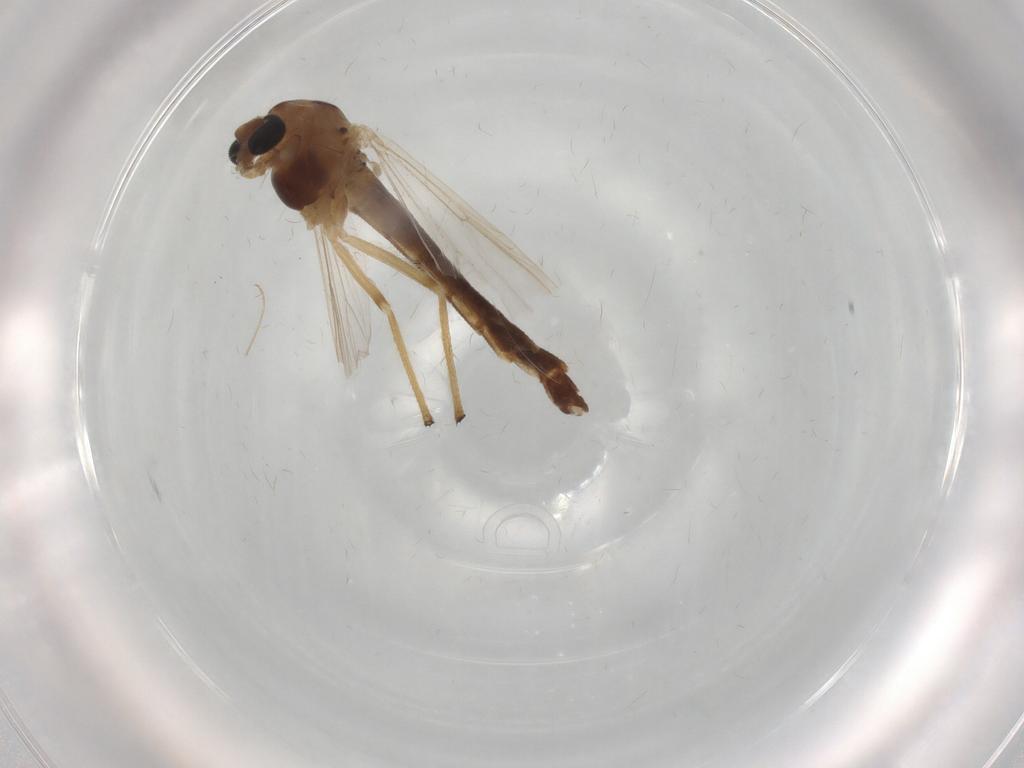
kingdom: Animalia
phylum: Arthropoda
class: Insecta
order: Diptera
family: Chironomidae
